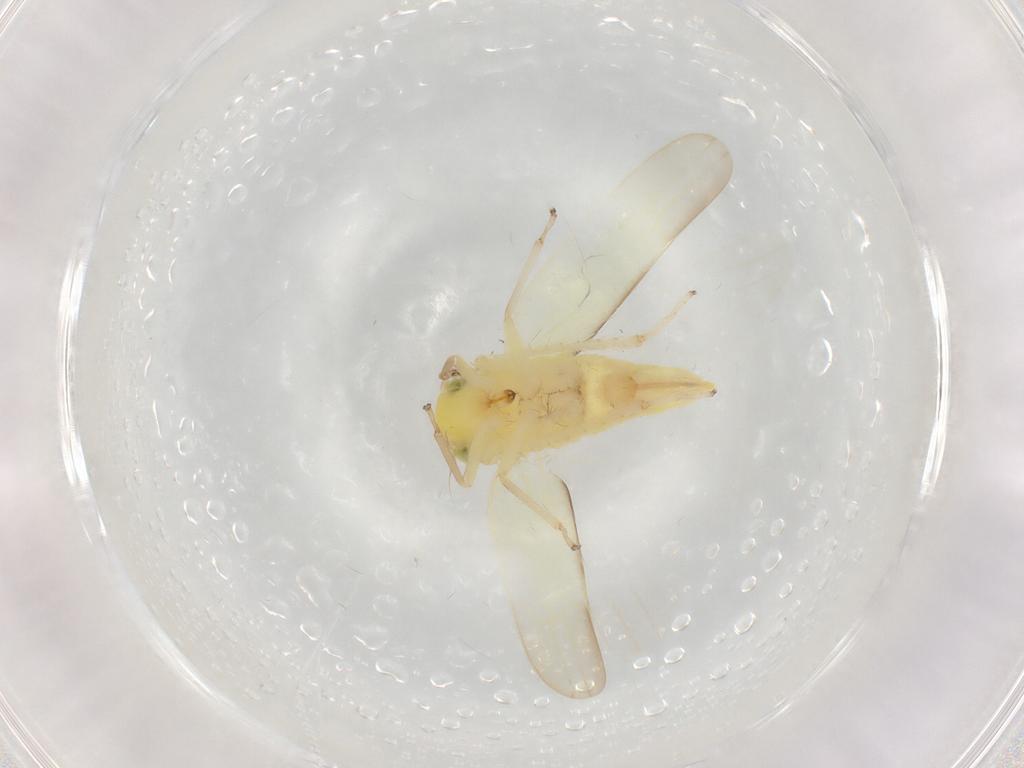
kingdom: Animalia
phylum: Arthropoda
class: Insecta
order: Hemiptera
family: Cicadellidae
